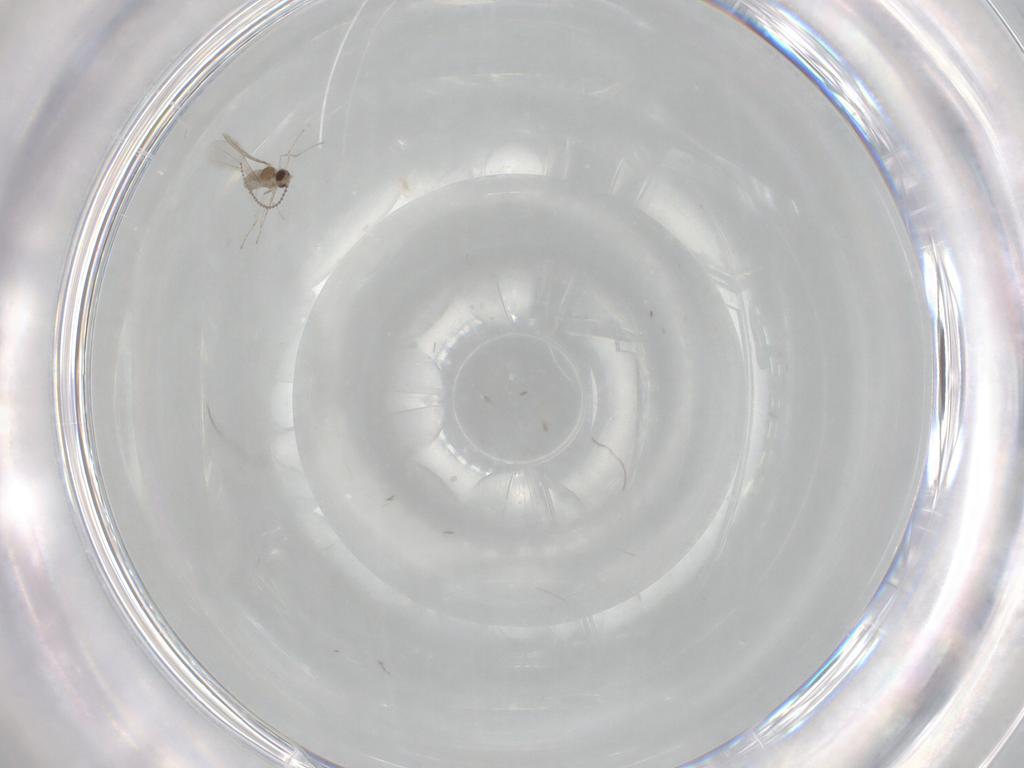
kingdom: Animalia
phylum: Arthropoda
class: Insecta
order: Diptera
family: Cecidomyiidae
